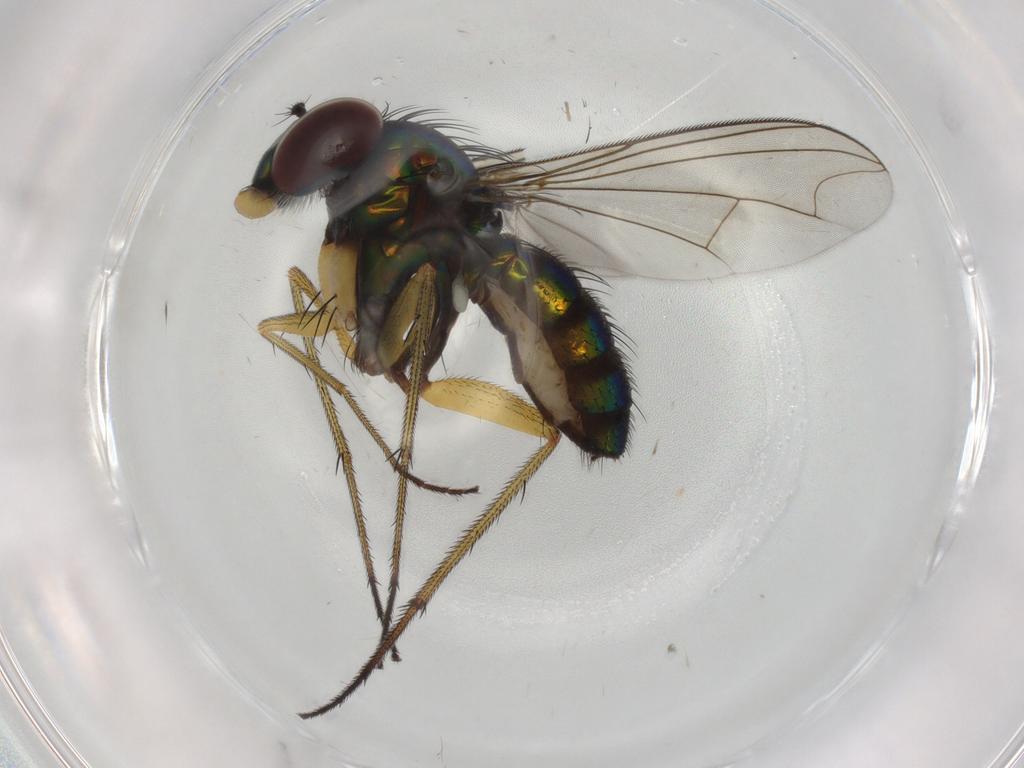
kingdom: Animalia
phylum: Arthropoda
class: Insecta
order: Diptera
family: Dolichopodidae
